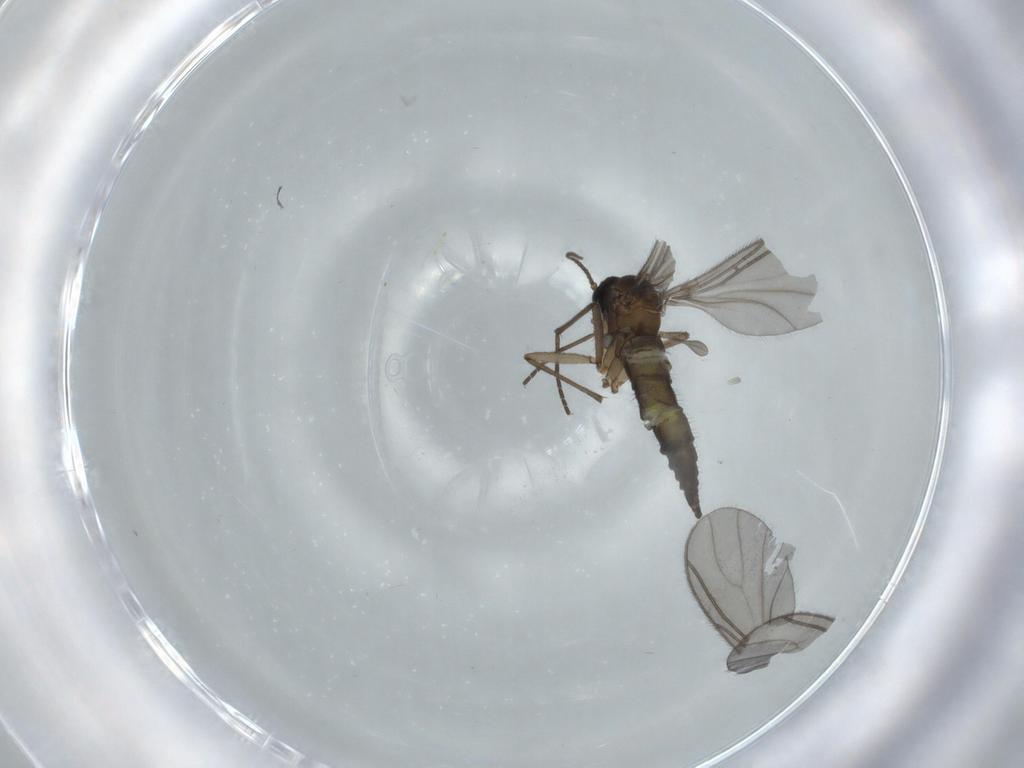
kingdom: Animalia
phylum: Arthropoda
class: Insecta
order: Diptera
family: Sciaridae
